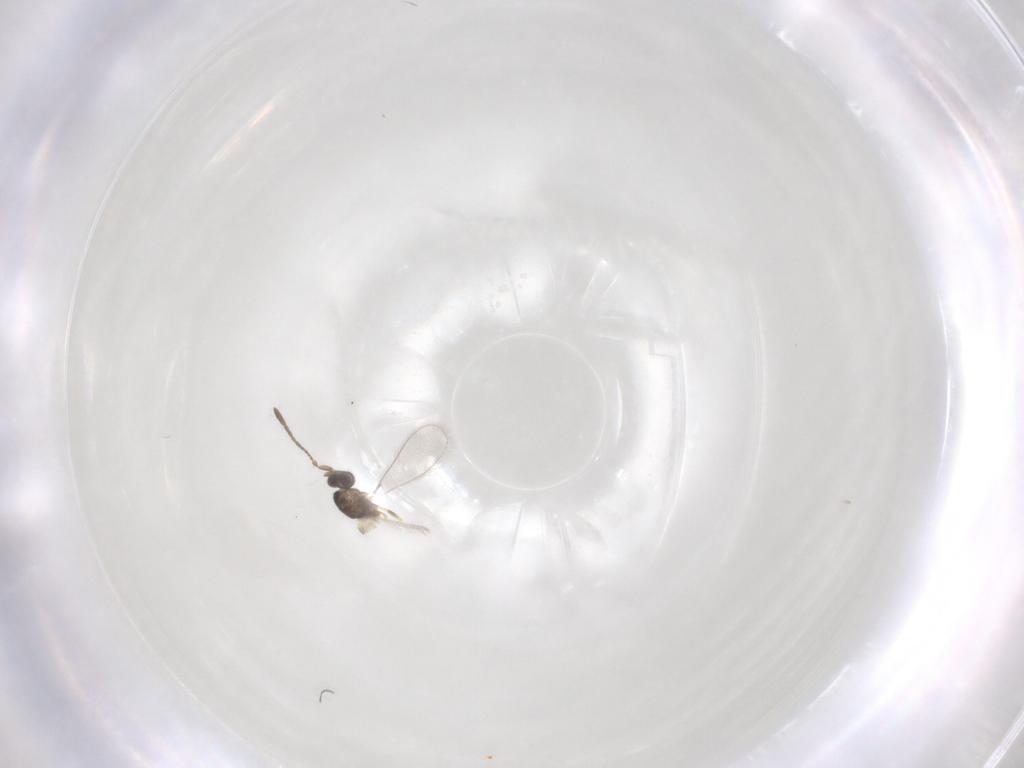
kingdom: Animalia
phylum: Arthropoda
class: Insecta
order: Hymenoptera
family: Mymaridae
